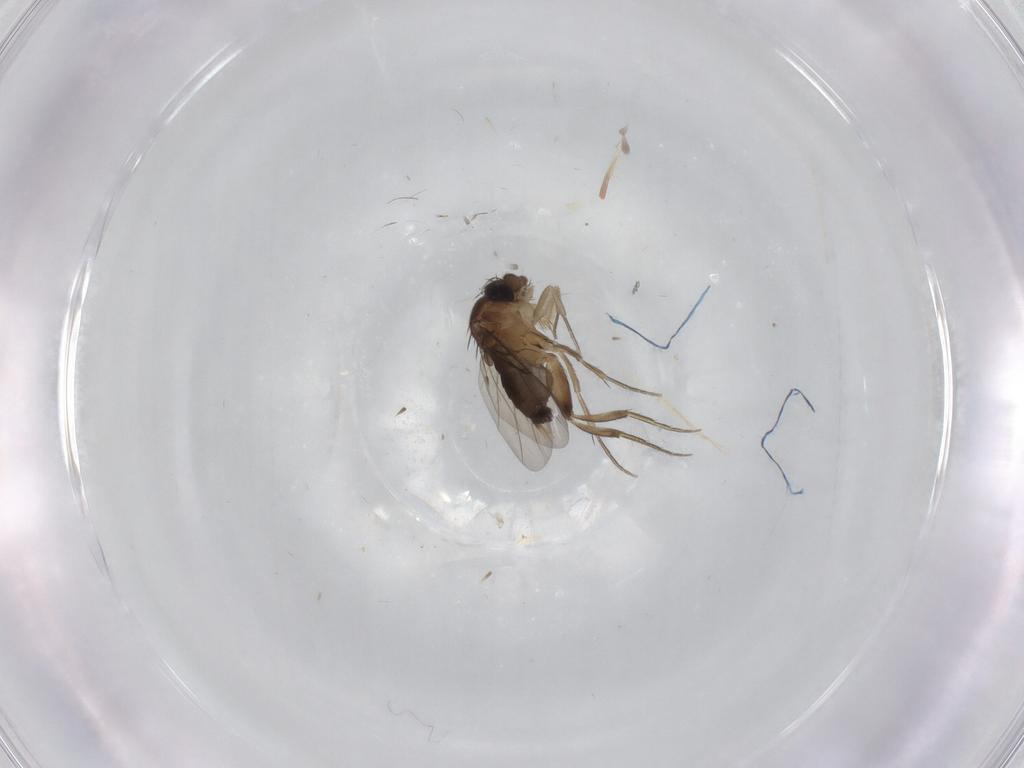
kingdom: Animalia
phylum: Arthropoda
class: Insecta
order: Diptera
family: Phoridae
